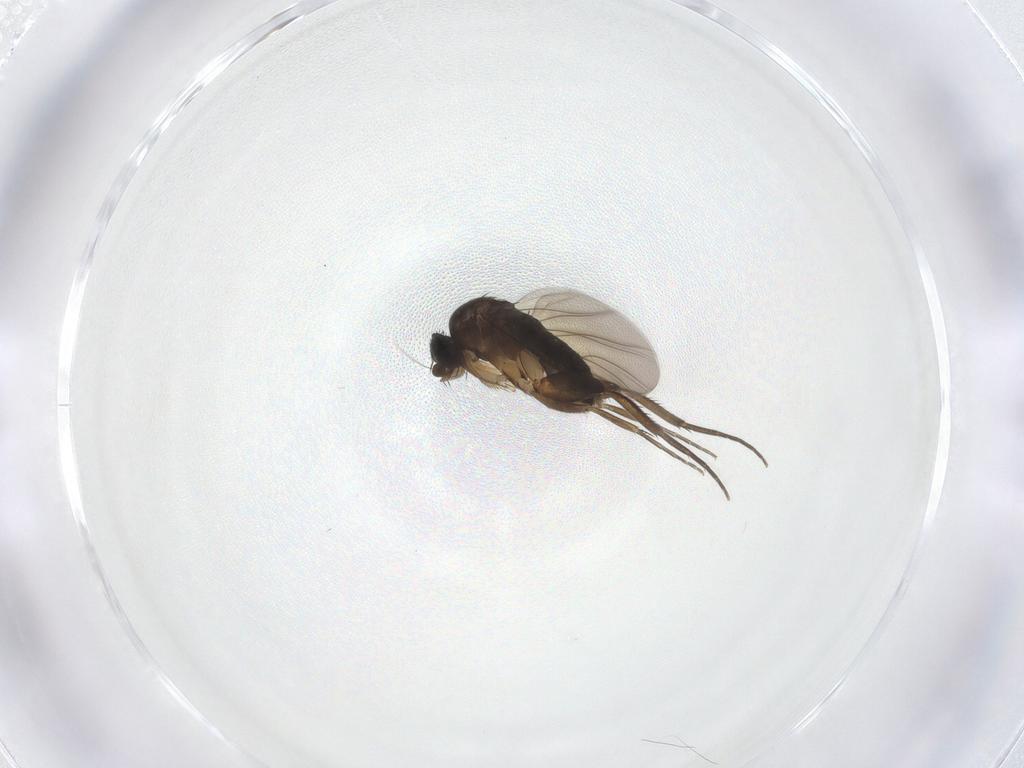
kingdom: Animalia
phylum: Arthropoda
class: Insecta
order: Diptera
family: Phoridae
